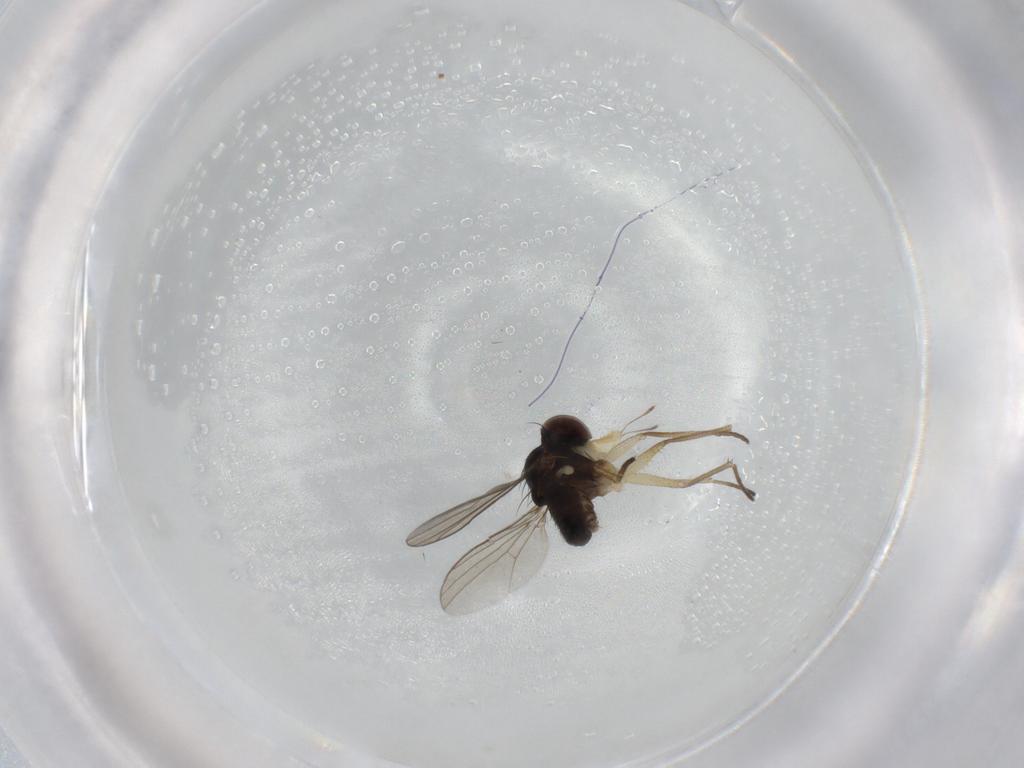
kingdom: Animalia
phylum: Arthropoda
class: Insecta
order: Diptera
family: Dolichopodidae
